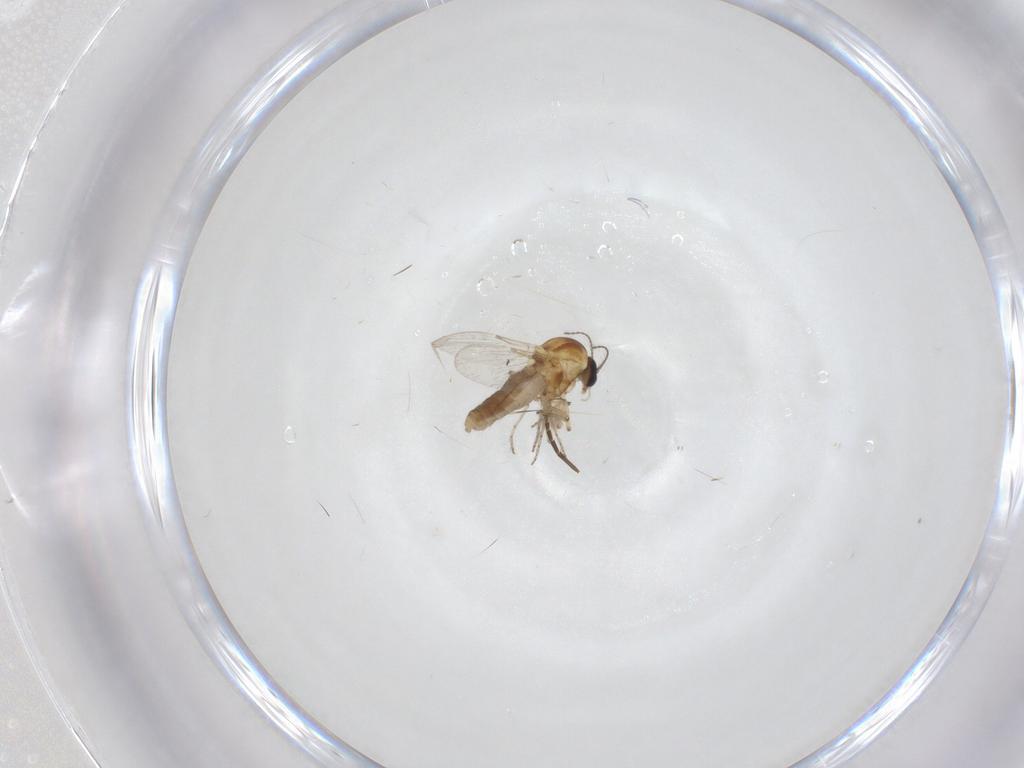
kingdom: Animalia
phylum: Arthropoda
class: Insecta
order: Diptera
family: Ceratopogonidae
